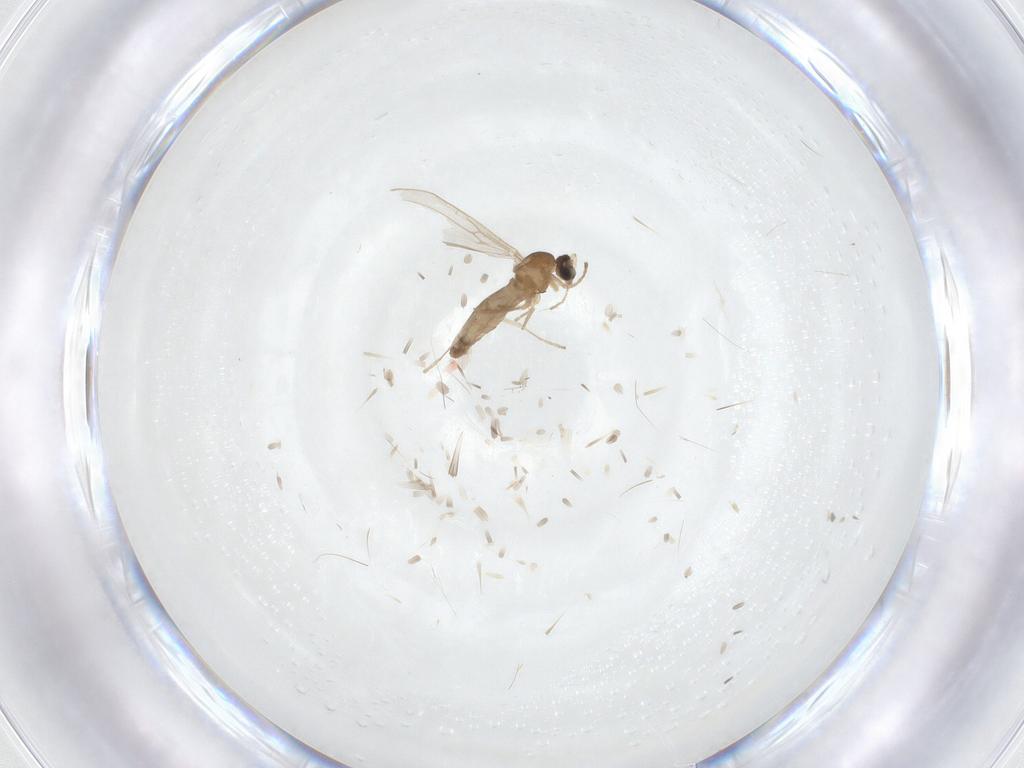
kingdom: Animalia
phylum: Arthropoda
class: Insecta
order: Diptera
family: Cecidomyiidae
